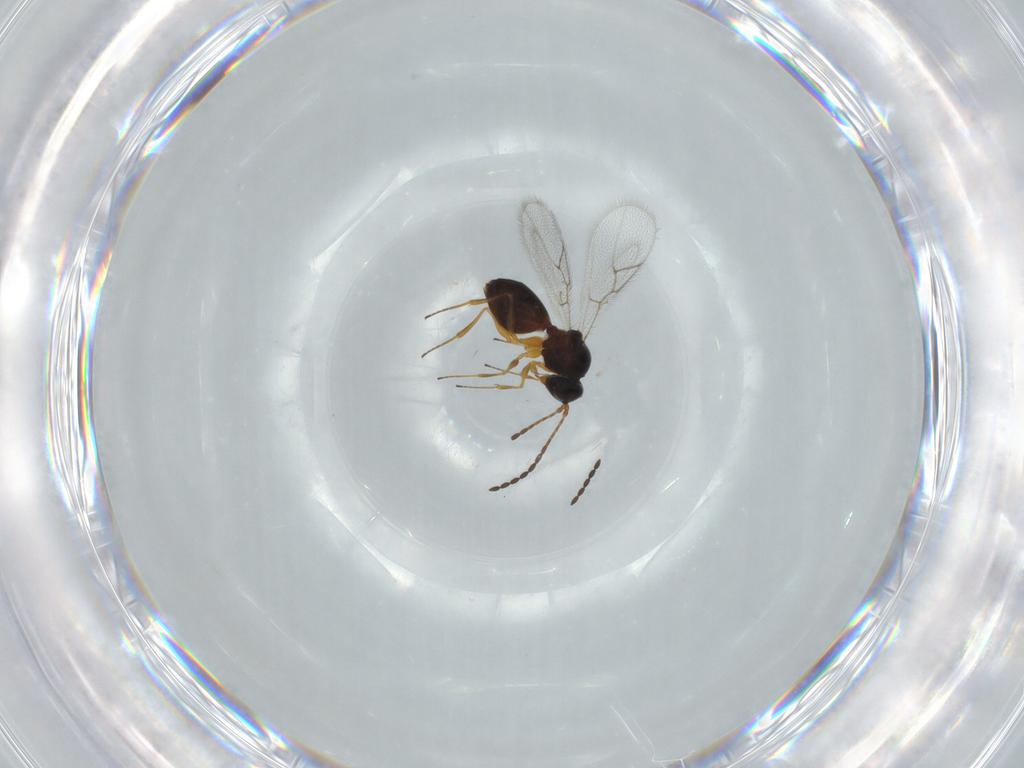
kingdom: Animalia
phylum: Arthropoda
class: Insecta
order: Hymenoptera
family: Figitidae
